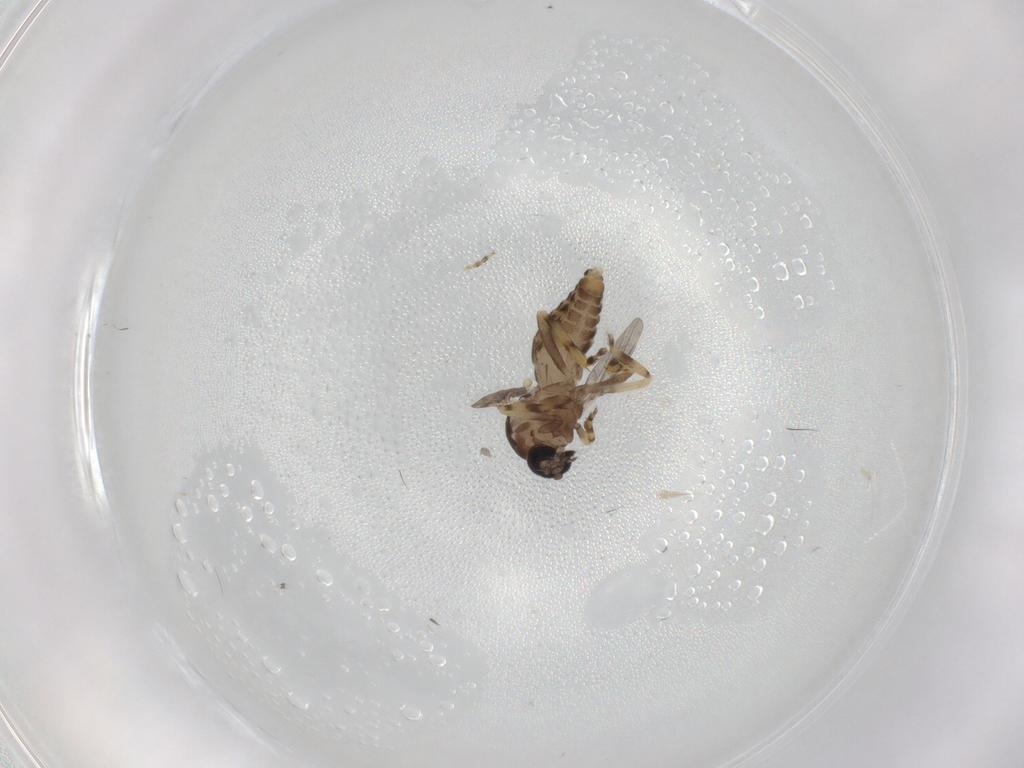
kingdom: Animalia
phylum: Arthropoda
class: Insecta
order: Diptera
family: Ceratopogonidae
